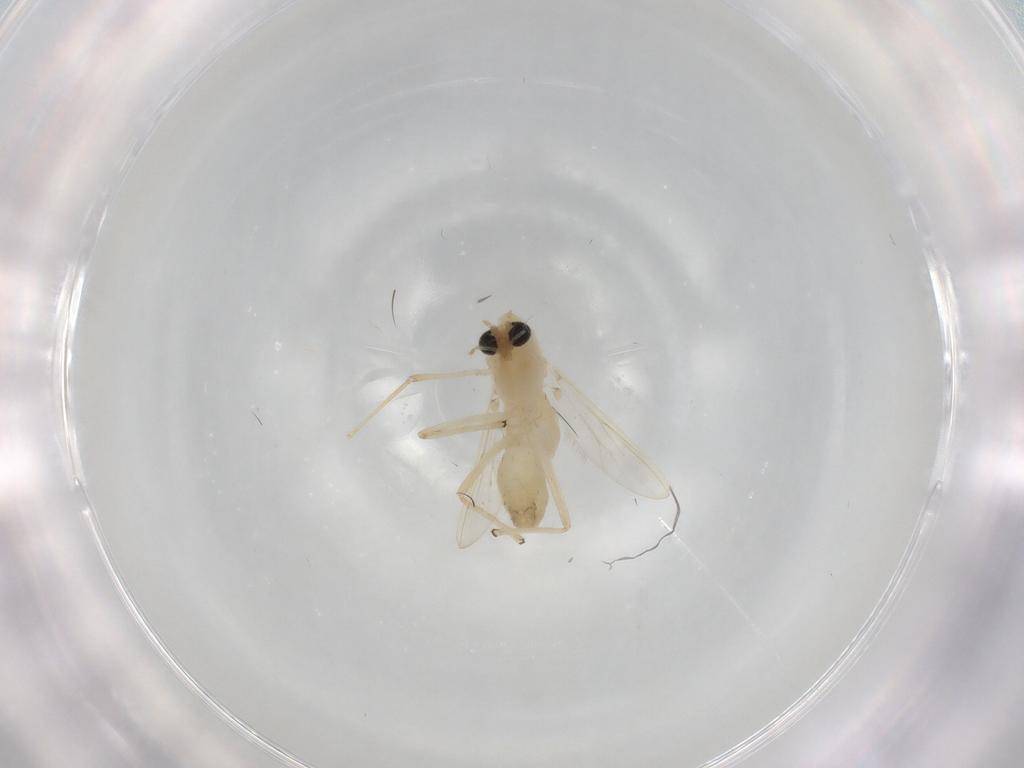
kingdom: Animalia
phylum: Arthropoda
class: Insecta
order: Diptera
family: Chironomidae
